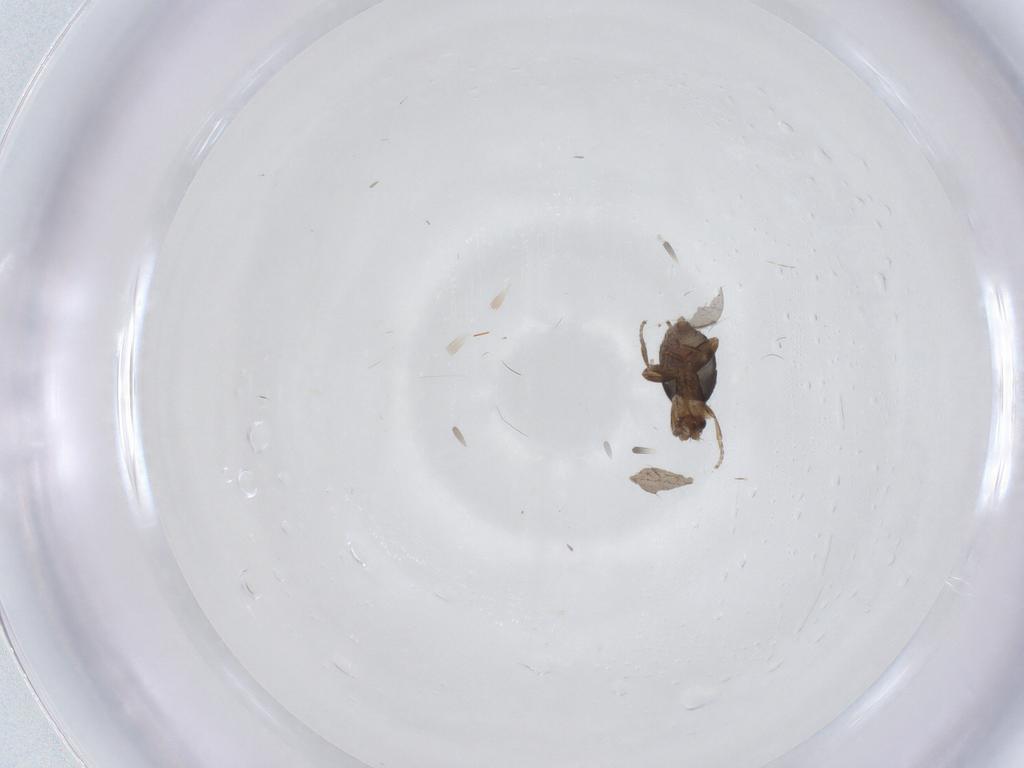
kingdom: Animalia
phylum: Arthropoda
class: Insecta
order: Diptera
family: Sciaridae
